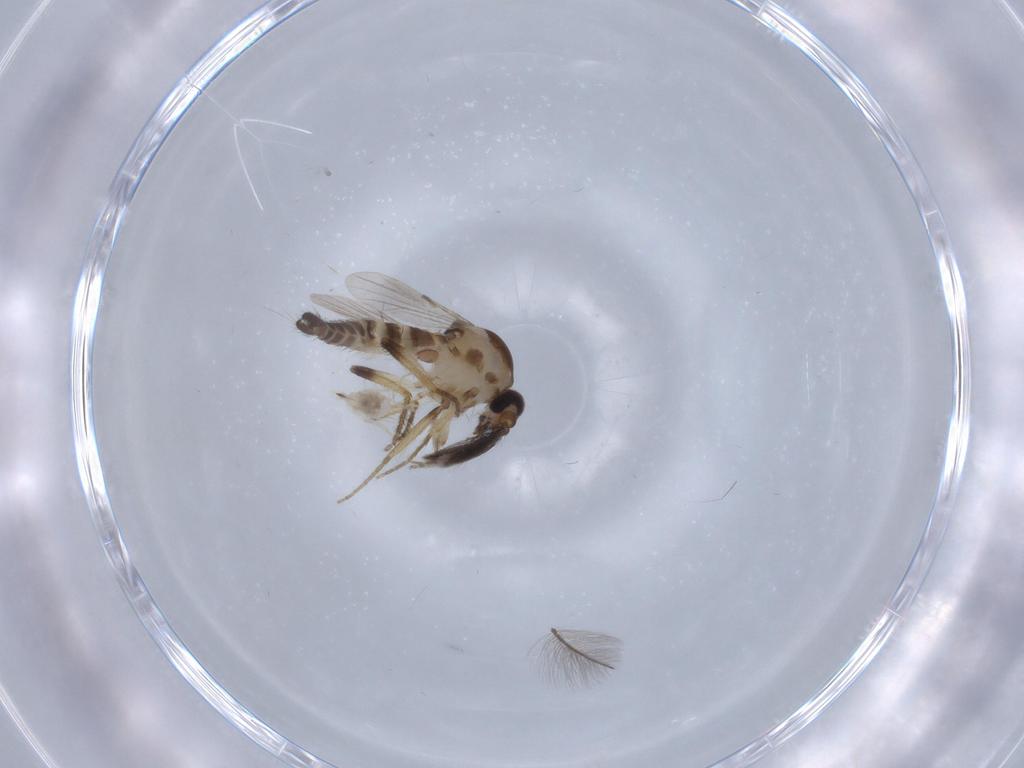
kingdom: Animalia
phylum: Arthropoda
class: Insecta
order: Diptera
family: Ceratopogonidae
